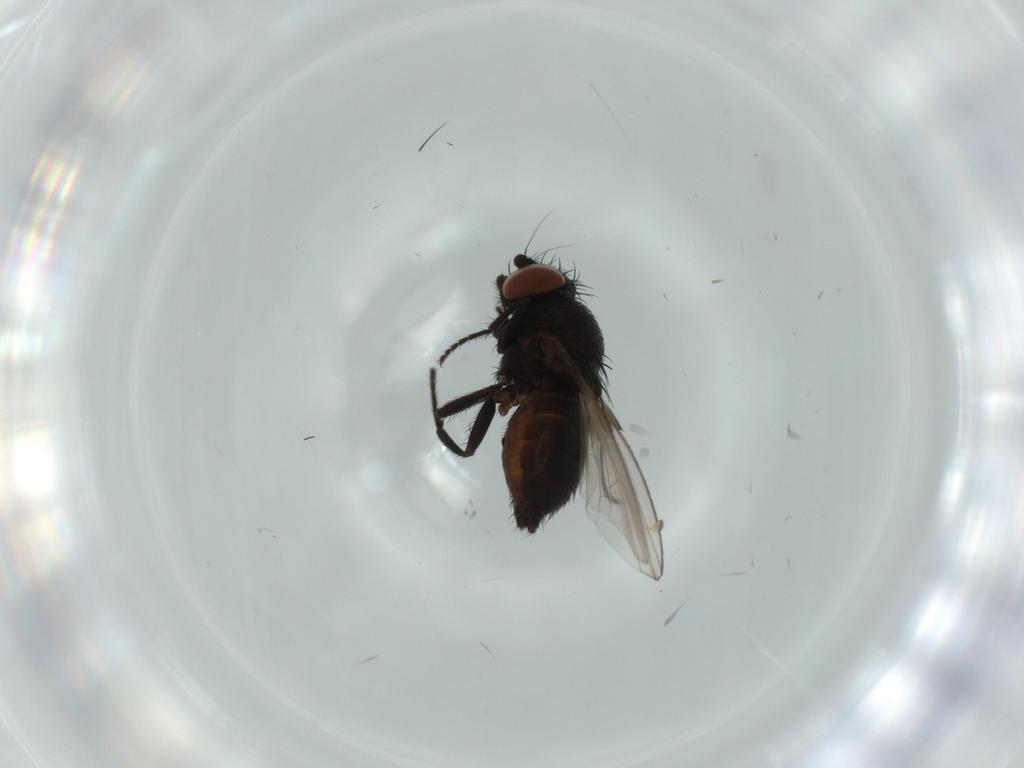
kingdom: Animalia
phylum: Arthropoda
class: Insecta
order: Diptera
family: Milichiidae
